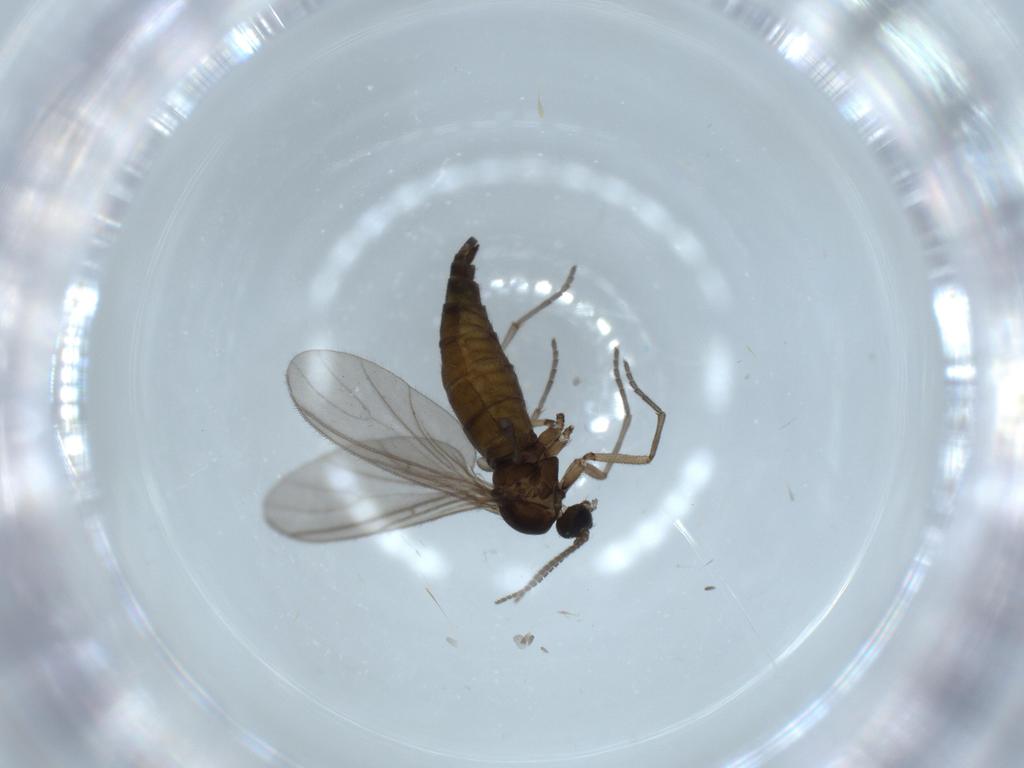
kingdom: Animalia
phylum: Arthropoda
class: Insecta
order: Diptera
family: Sciaridae
